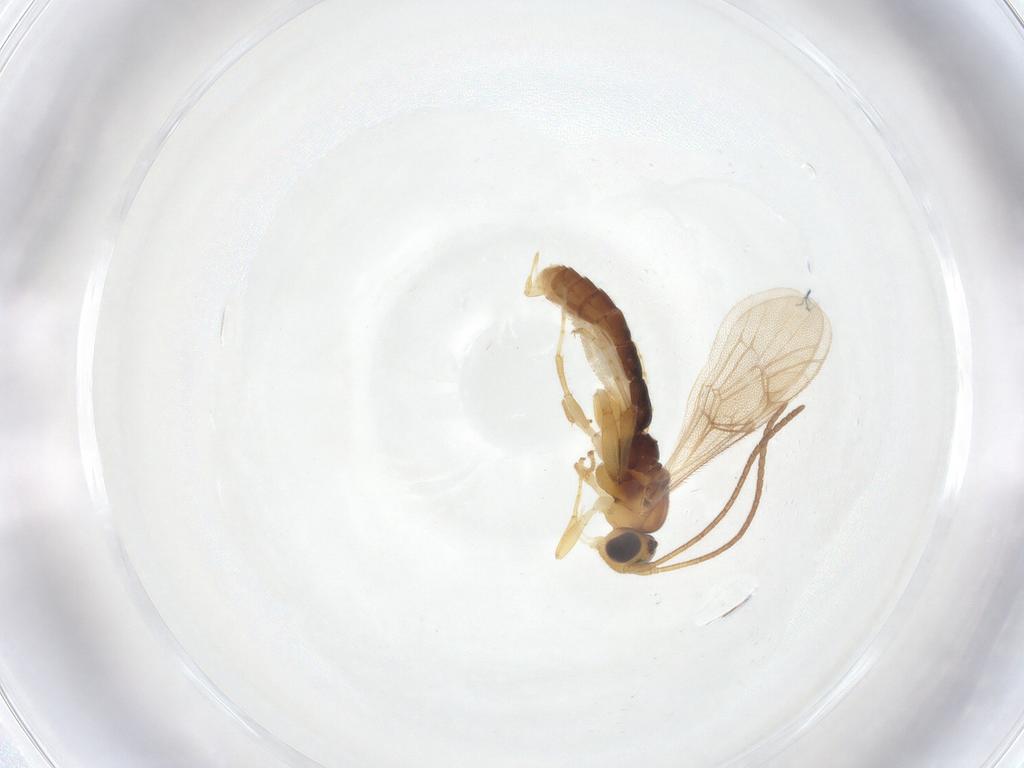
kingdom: Animalia
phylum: Arthropoda
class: Insecta
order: Hymenoptera
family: Ichneumonidae
